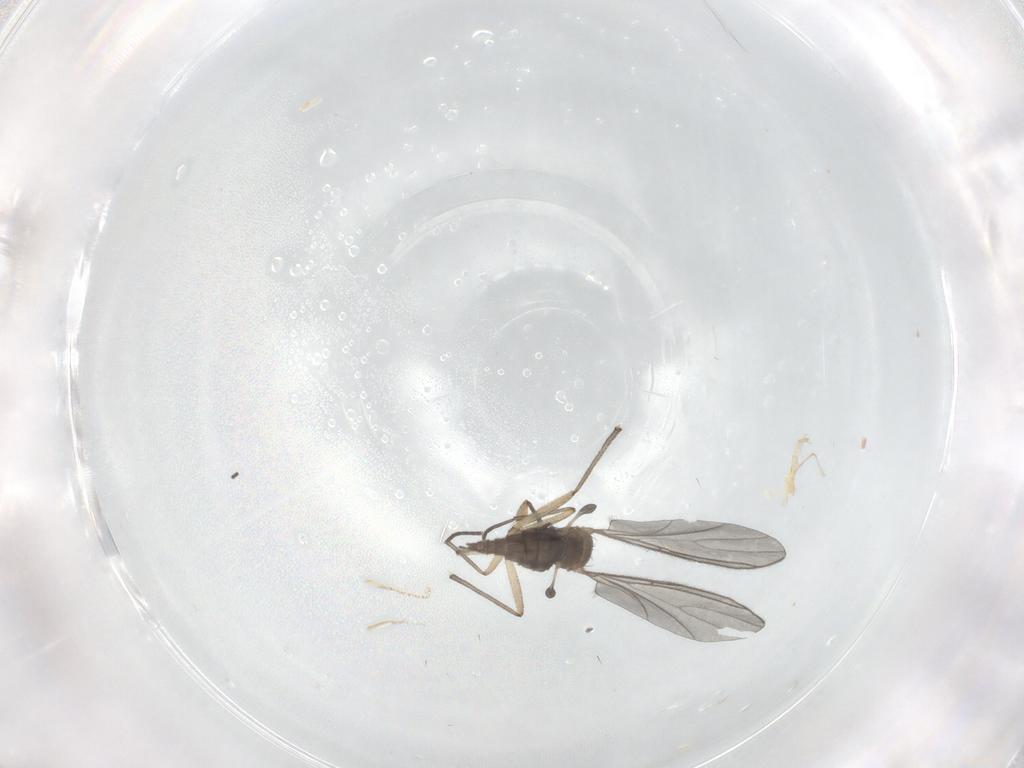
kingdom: Animalia
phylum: Arthropoda
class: Insecta
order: Diptera
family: Sciaridae
